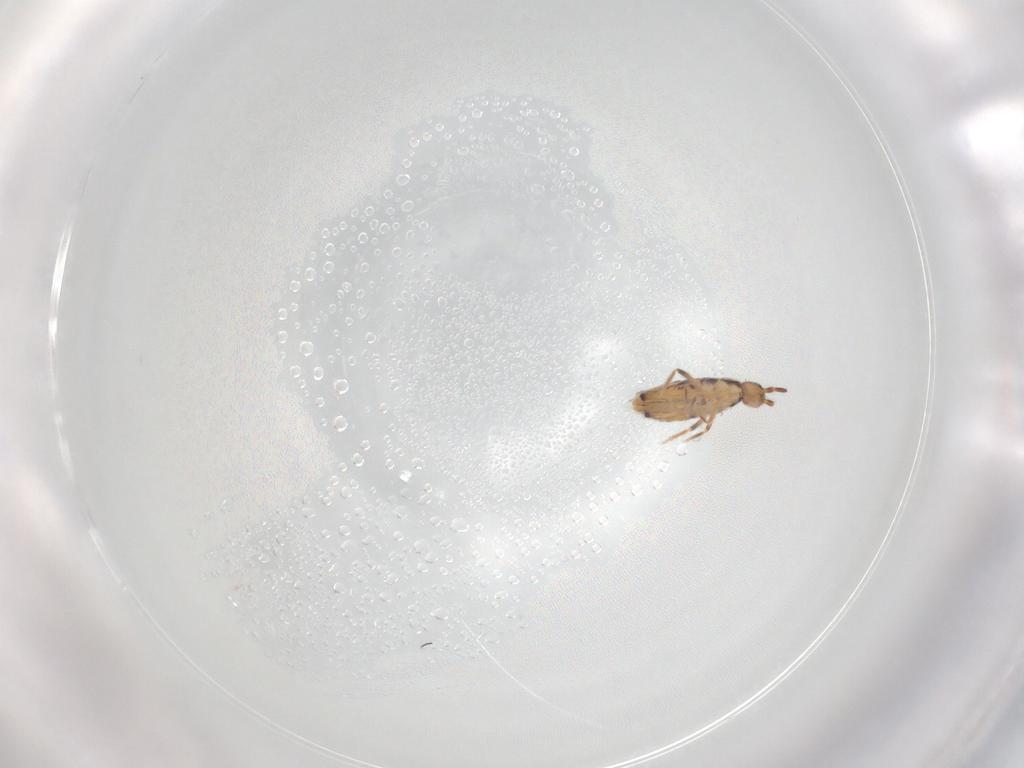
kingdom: Animalia
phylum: Arthropoda
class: Collembola
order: Entomobryomorpha
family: Entomobryidae
